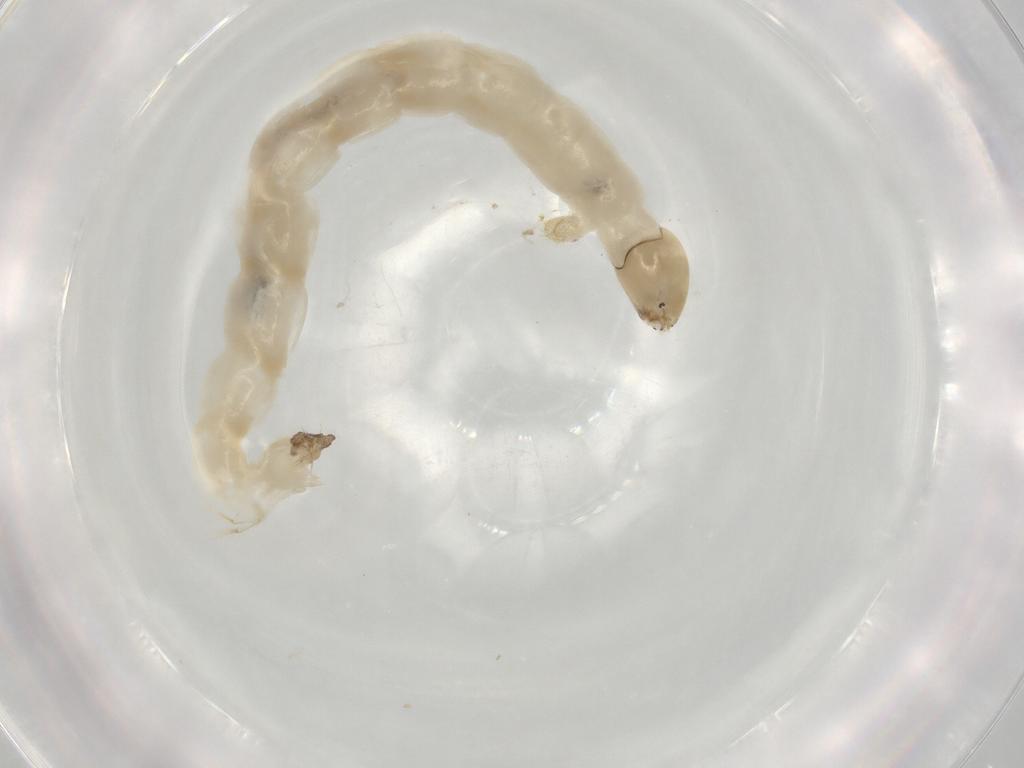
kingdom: Animalia
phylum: Arthropoda
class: Insecta
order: Diptera
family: Chironomidae
